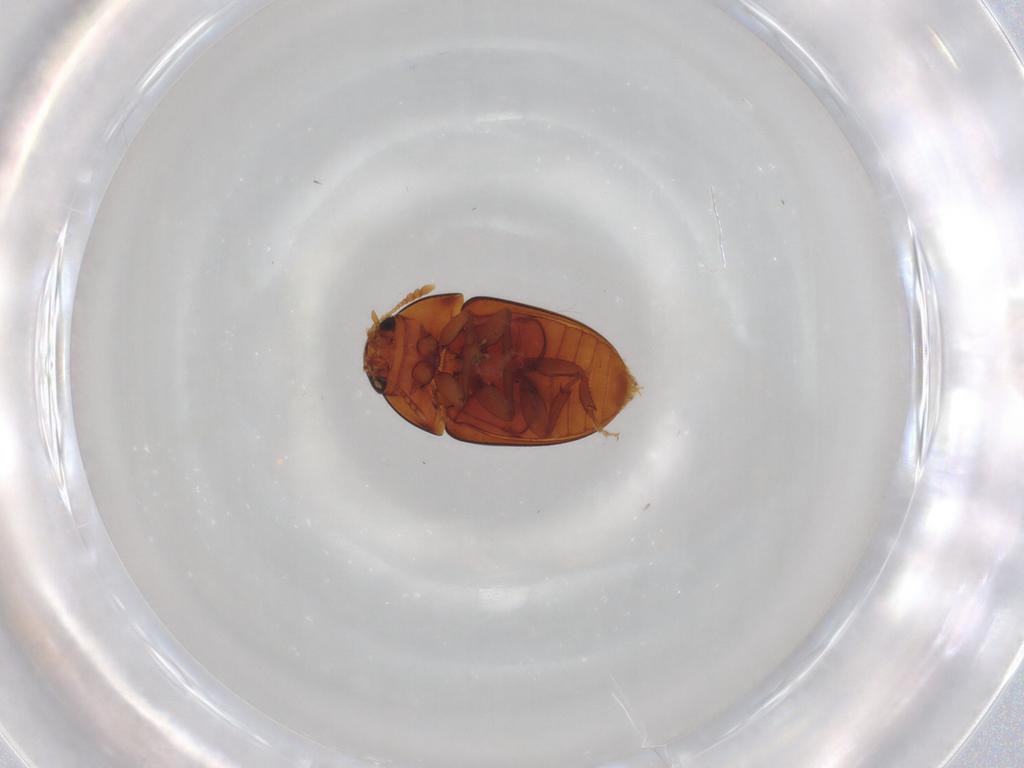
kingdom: Animalia
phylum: Arthropoda
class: Insecta
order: Coleoptera
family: Phalacridae
